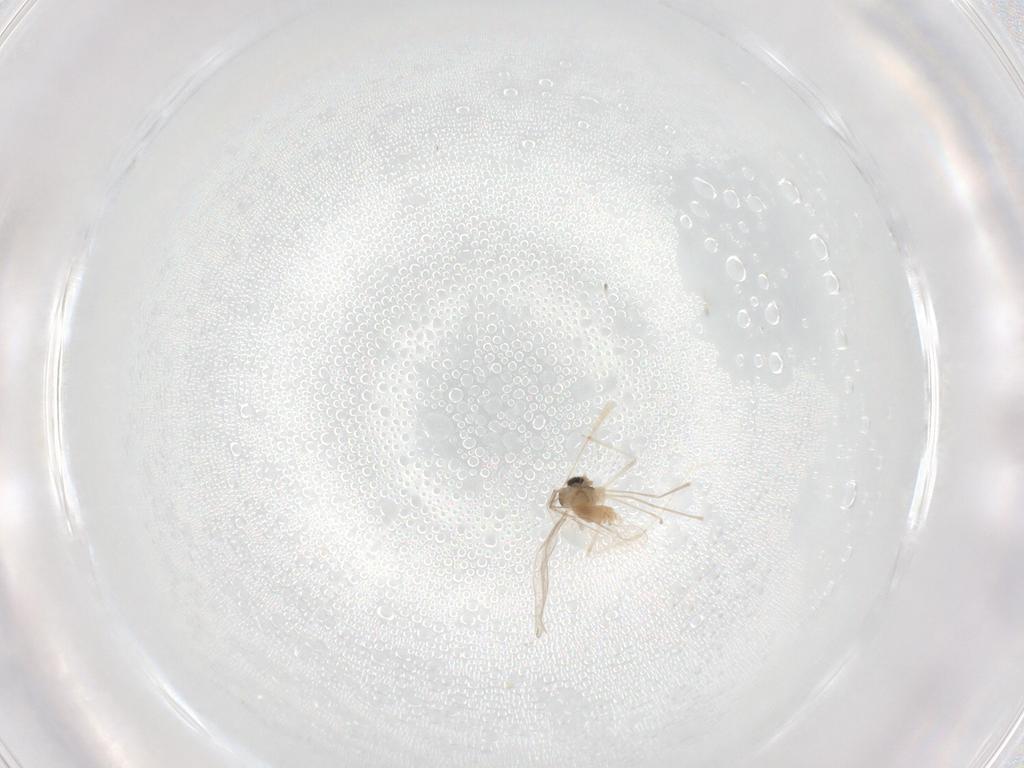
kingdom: Animalia
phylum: Arthropoda
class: Insecta
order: Diptera
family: Cecidomyiidae
